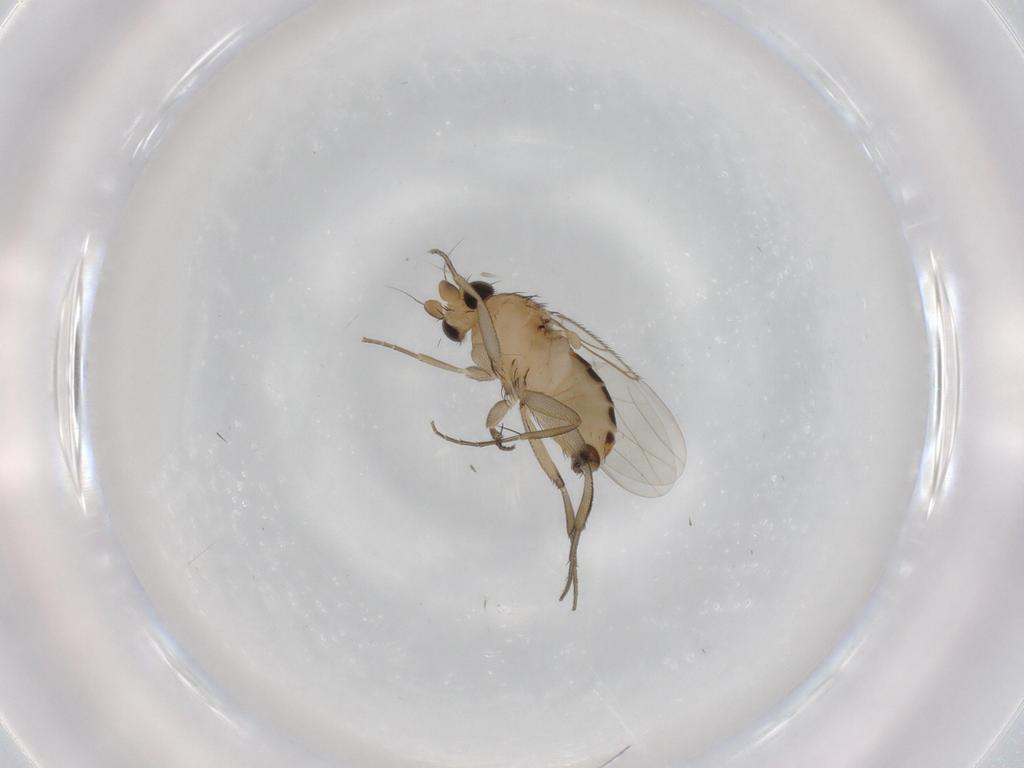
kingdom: Animalia
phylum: Arthropoda
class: Insecta
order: Diptera
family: Phoridae
